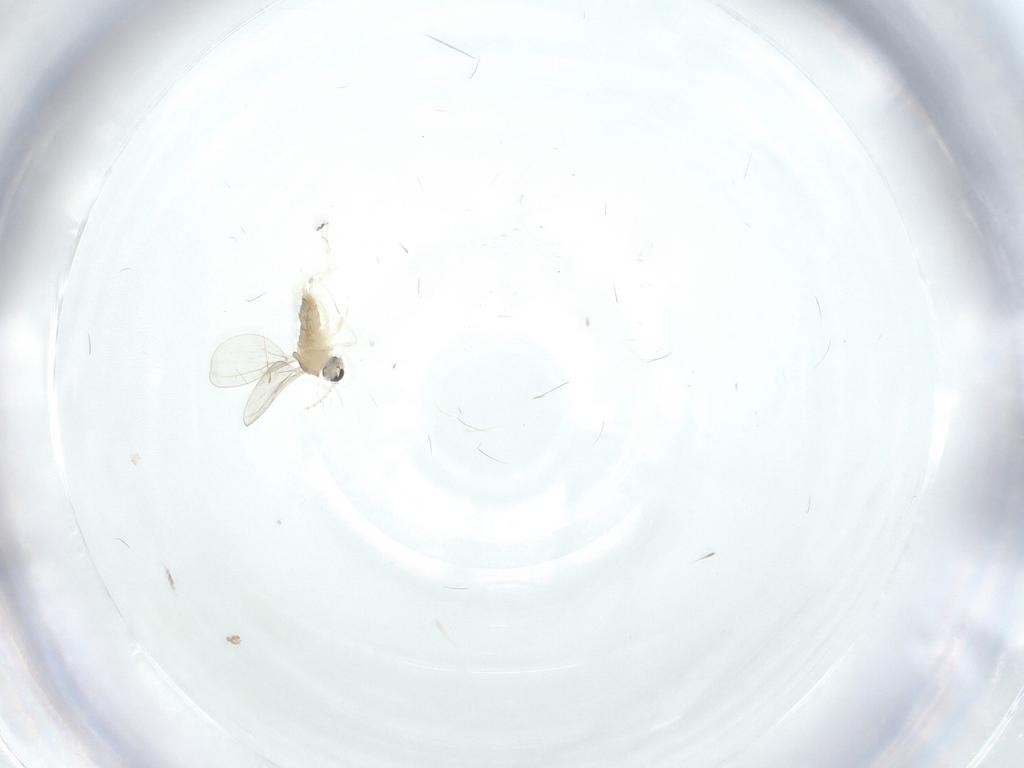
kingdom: Animalia
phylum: Arthropoda
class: Insecta
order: Diptera
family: Cecidomyiidae
